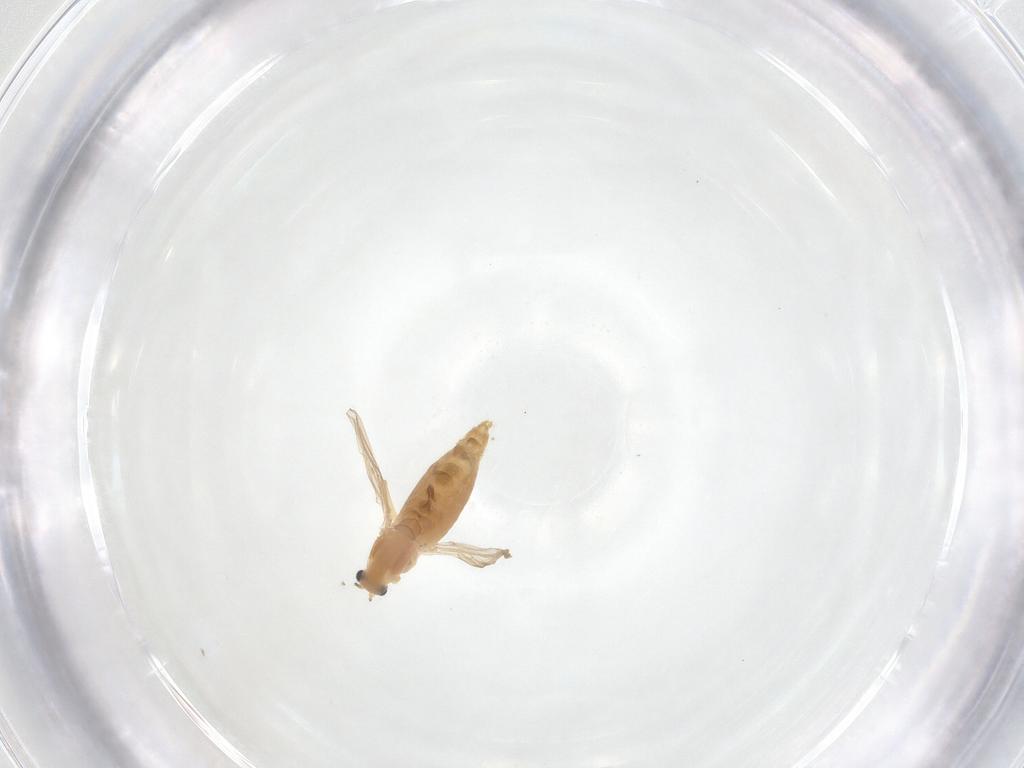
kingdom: Animalia
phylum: Arthropoda
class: Insecta
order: Diptera
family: Chironomidae
